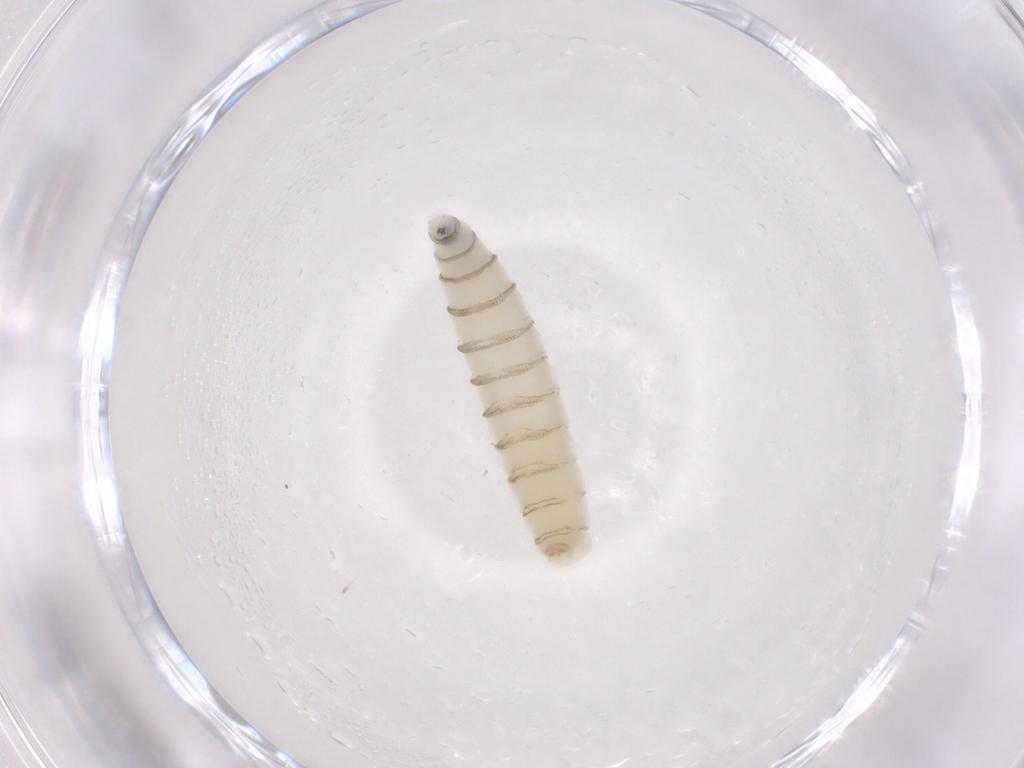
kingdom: Animalia
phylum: Arthropoda
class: Insecta
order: Diptera
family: Sarcophagidae
